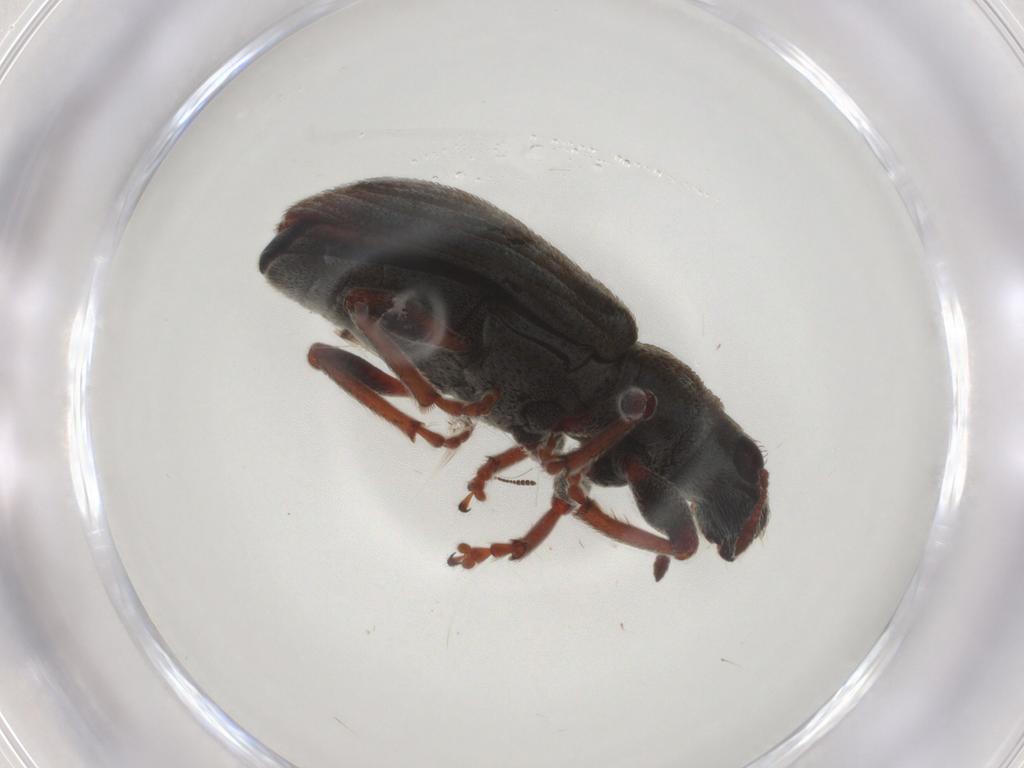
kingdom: Animalia
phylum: Arthropoda
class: Insecta
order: Coleoptera
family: Curculionidae
